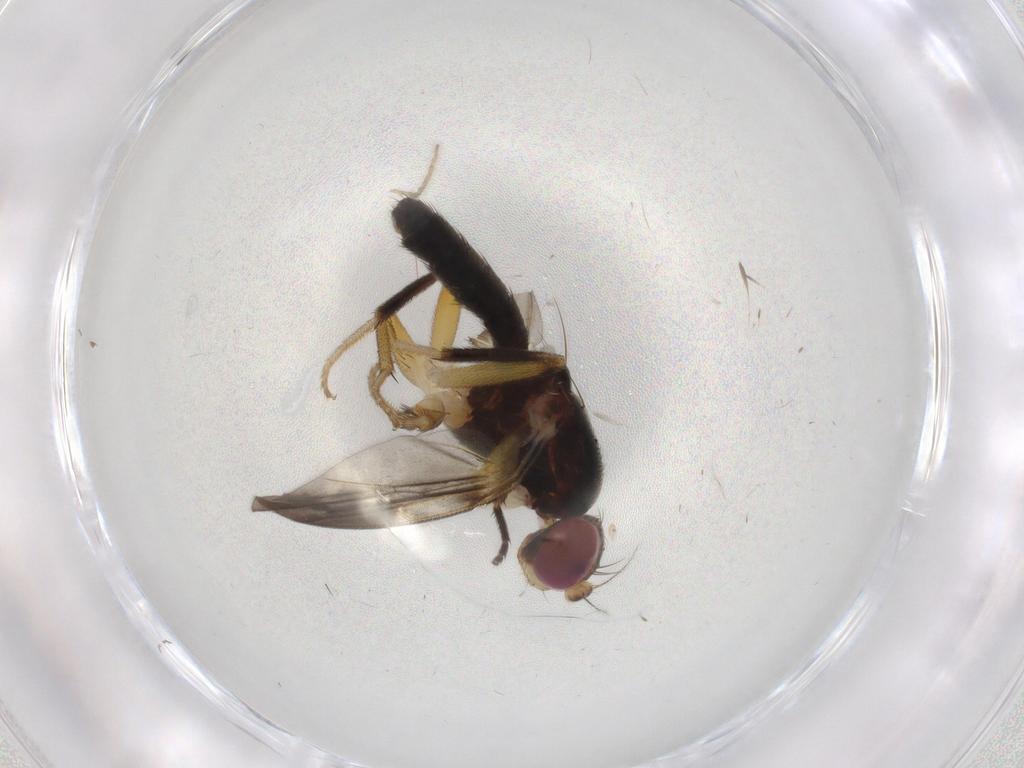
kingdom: Animalia
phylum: Arthropoda
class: Insecta
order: Diptera
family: Clusiidae
